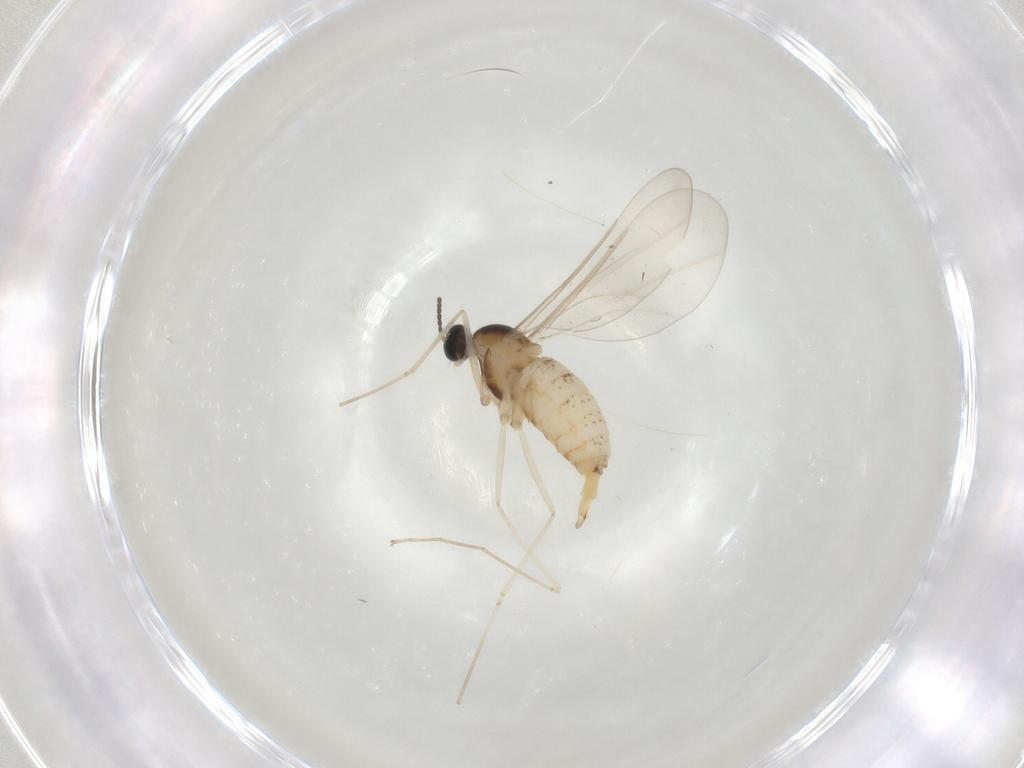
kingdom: Animalia
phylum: Arthropoda
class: Insecta
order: Diptera
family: Cecidomyiidae
